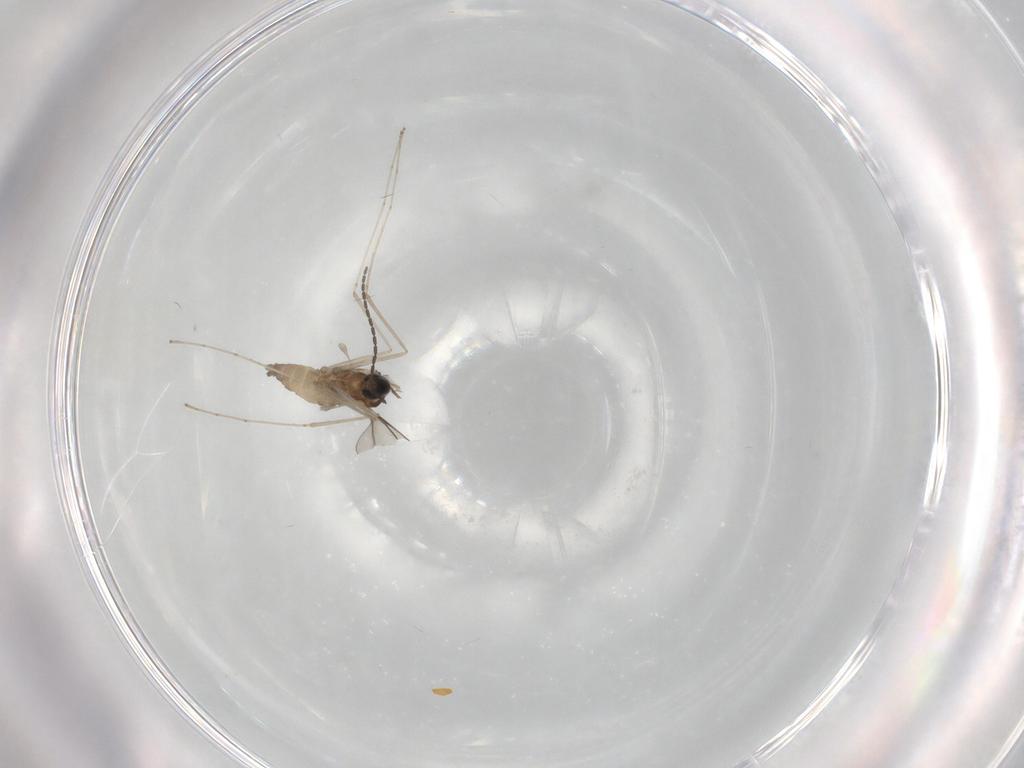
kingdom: Animalia
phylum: Arthropoda
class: Insecta
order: Diptera
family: Cecidomyiidae
